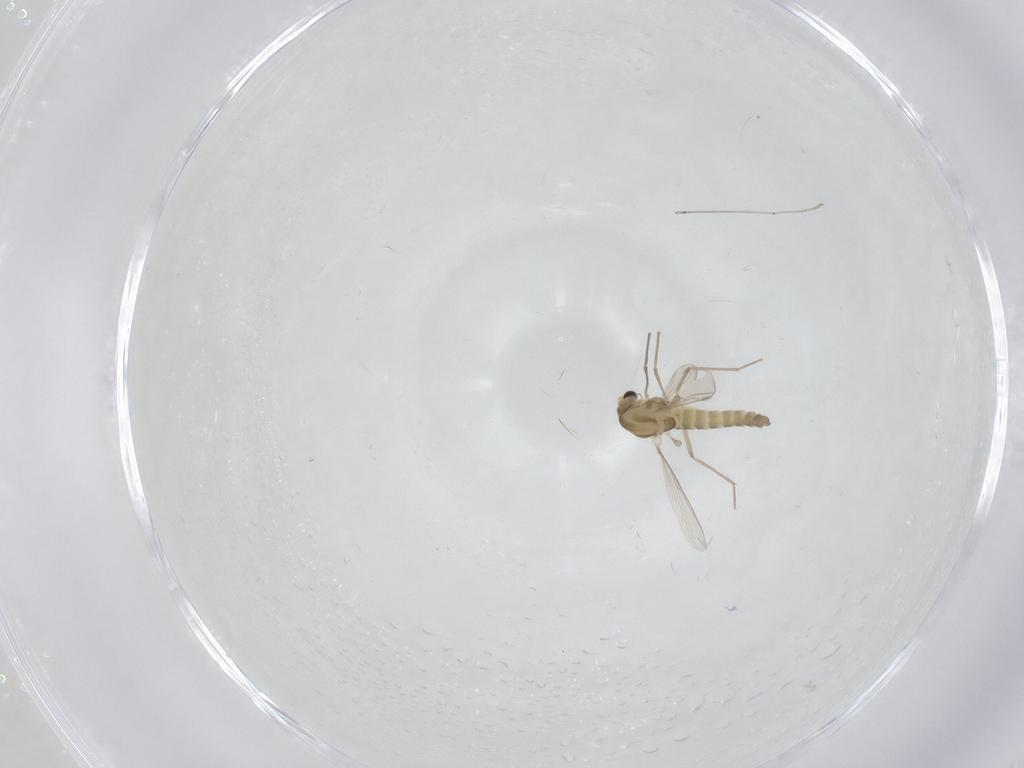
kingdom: Animalia
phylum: Arthropoda
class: Insecta
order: Diptera
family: Chironomidae
